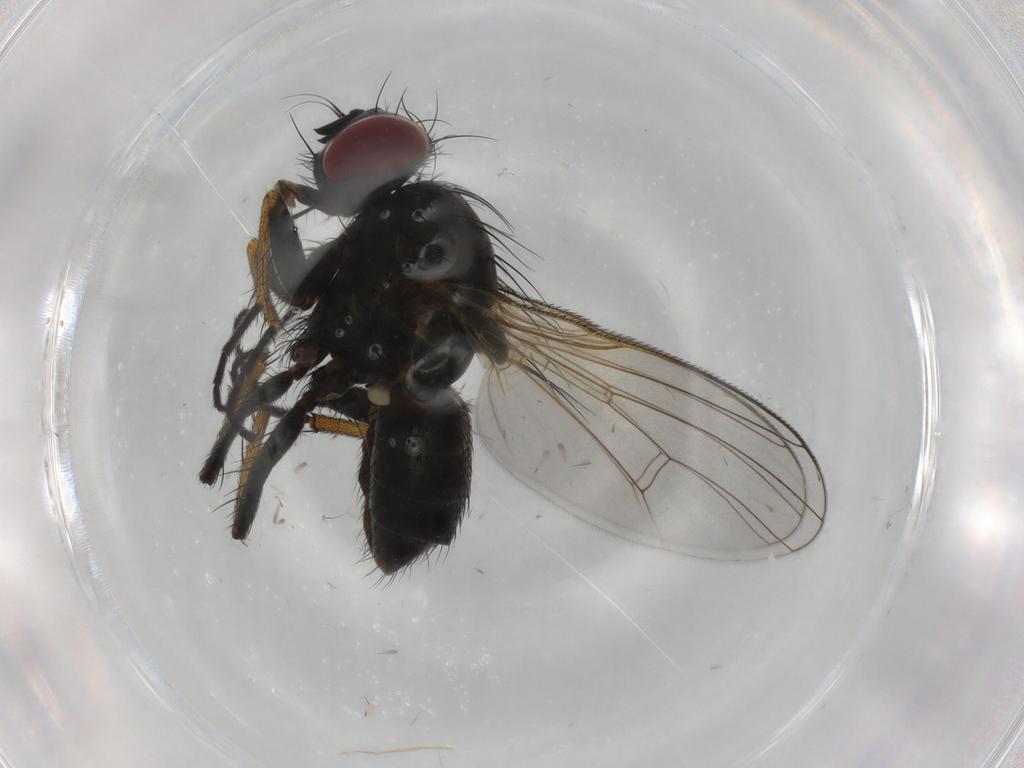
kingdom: Animalia
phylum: Arthropoda
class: Insecta
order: Diptera
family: Muscidae
